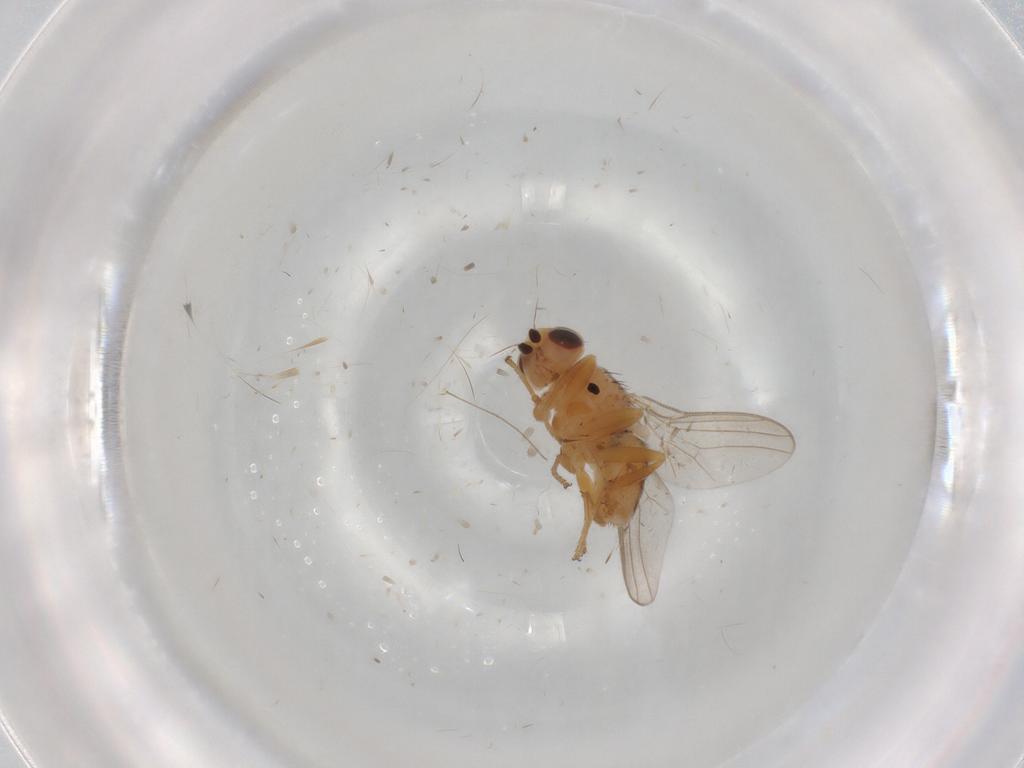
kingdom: Animalia
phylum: Arthropoda
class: Insecta
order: Diptera
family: Chloropidae
